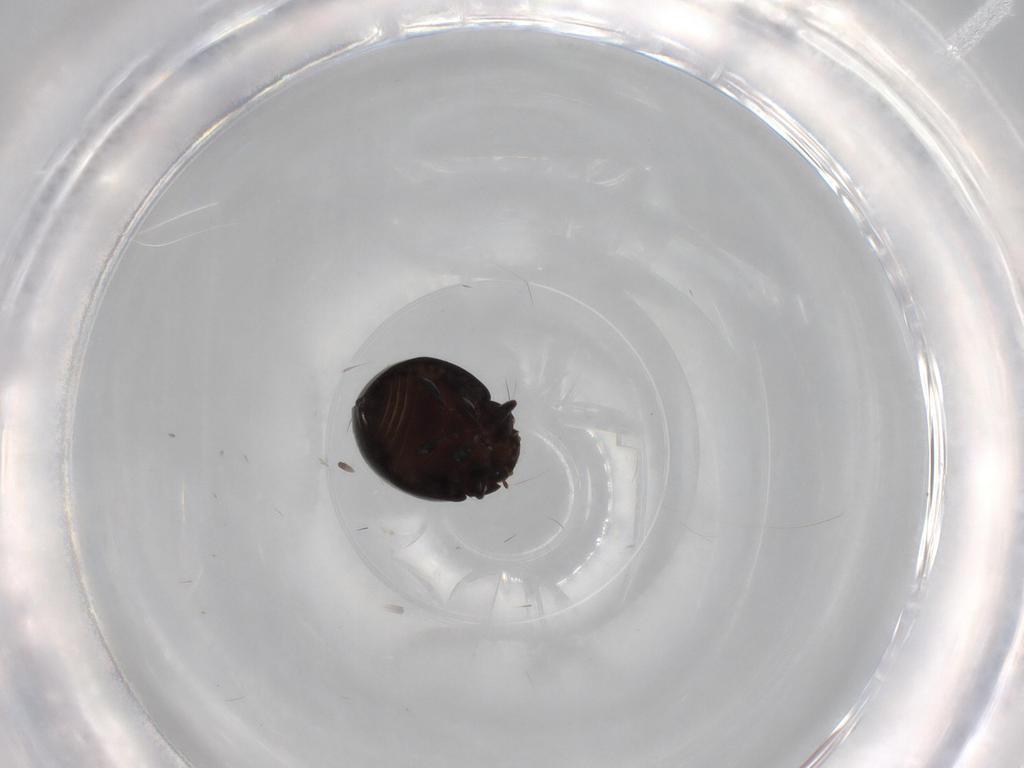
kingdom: Animalia
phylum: Arthropoda
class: Insecta
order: Coleoptera
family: Coccinellidae
